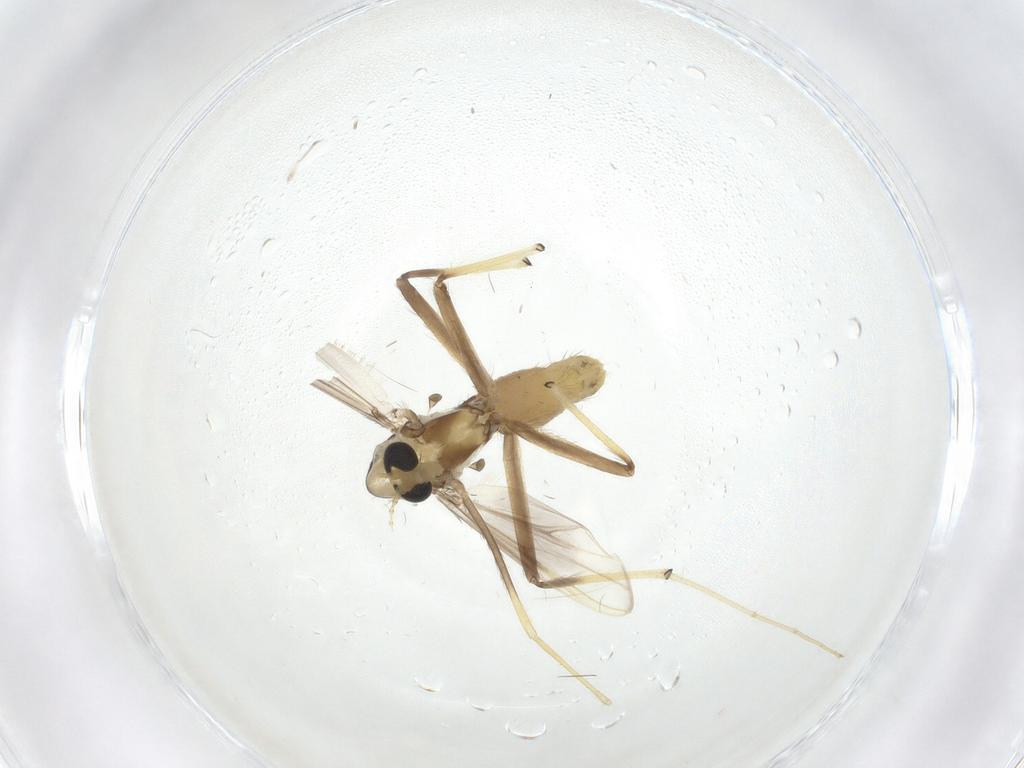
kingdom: Animalia
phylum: Arthropoda
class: Insecta
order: Diptera
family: Chironomidae
